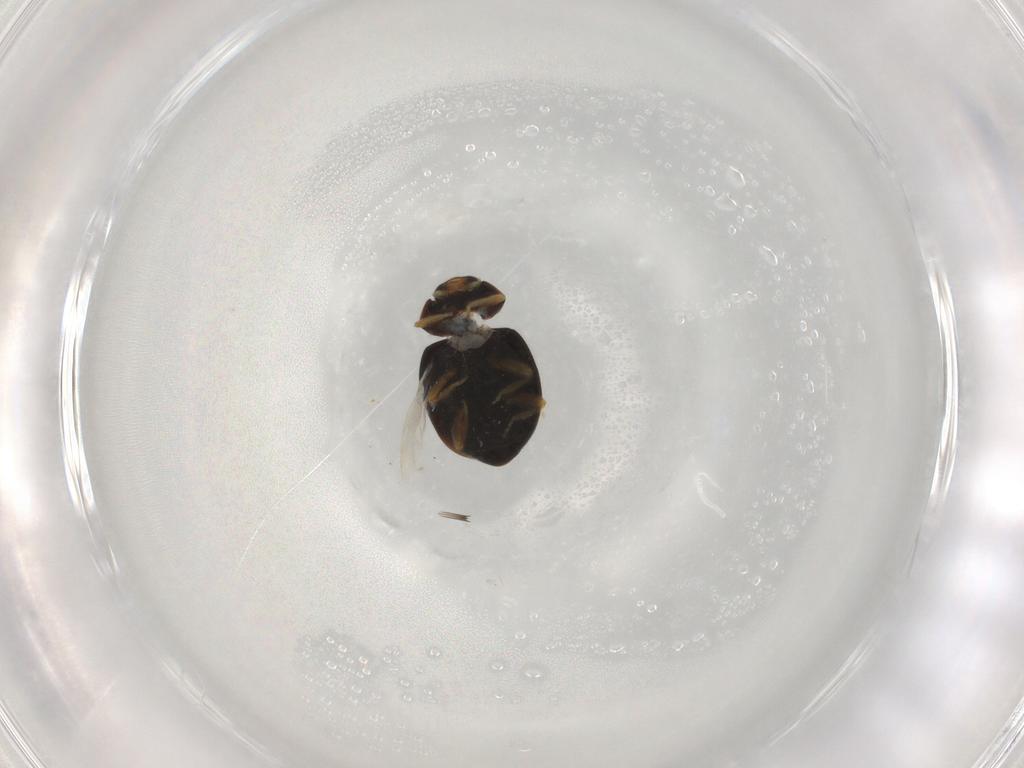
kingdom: Animalia
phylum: Arthropoda
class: Insecta
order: Coleoptera
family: Coccinellidae
